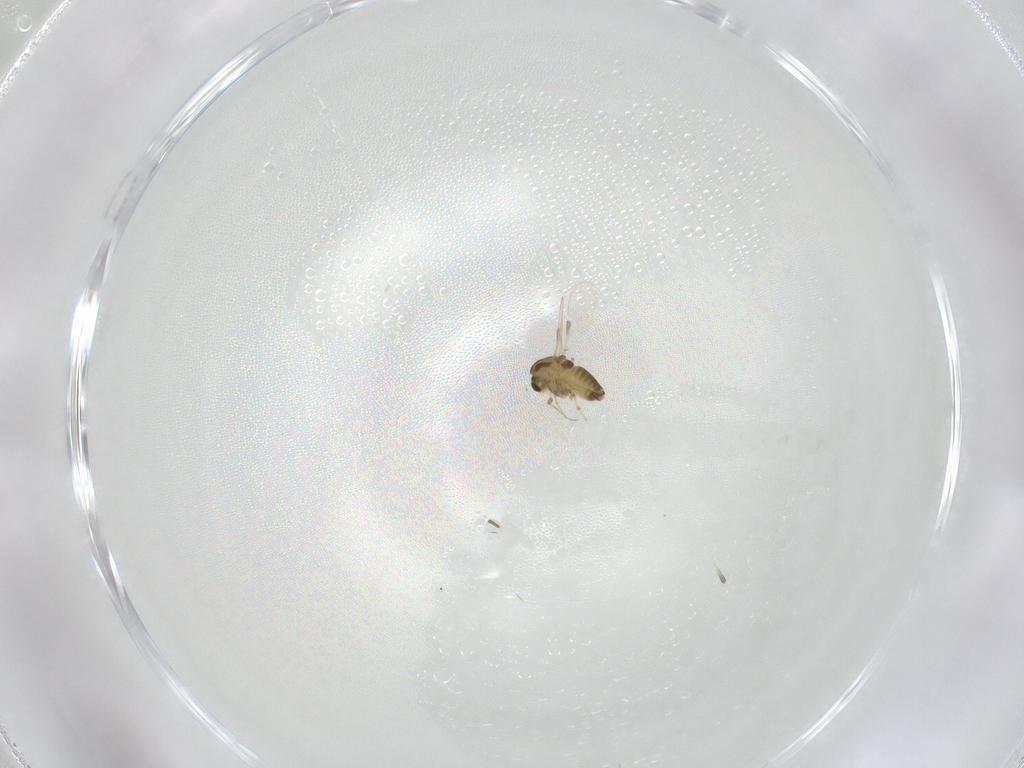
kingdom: Animalia
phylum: Arthropoda
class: Insecta
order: Diptera
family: Chironomidae
